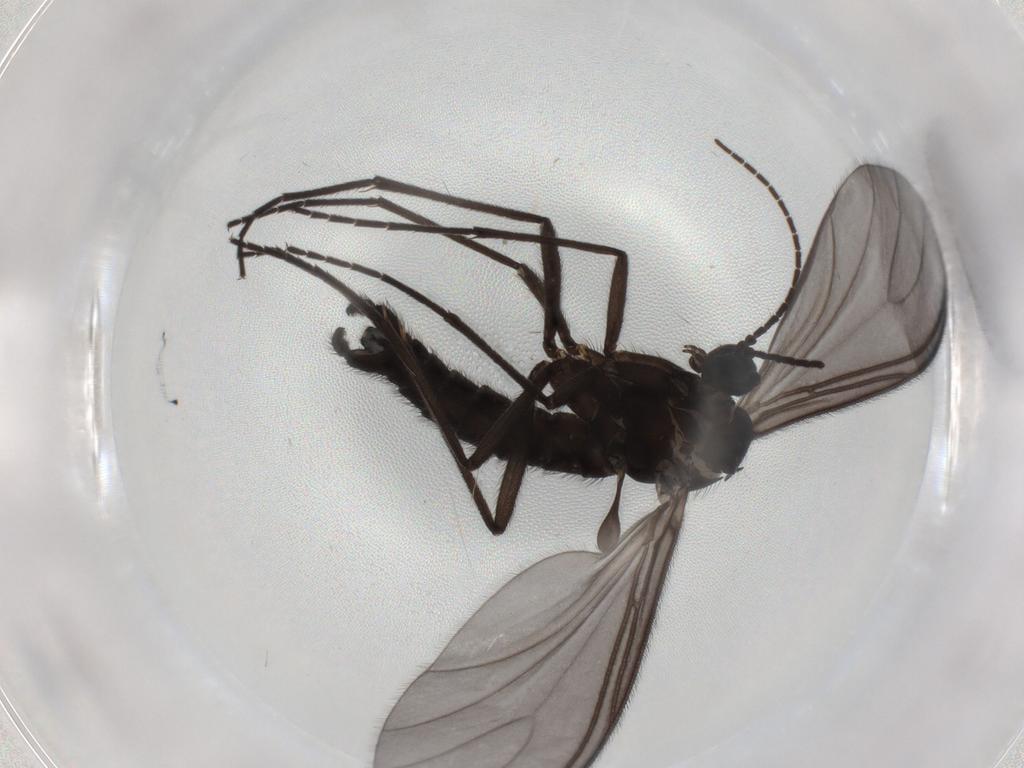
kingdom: Animalia
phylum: Arthropoda
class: Insecta
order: Diptera
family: Sciaridae
